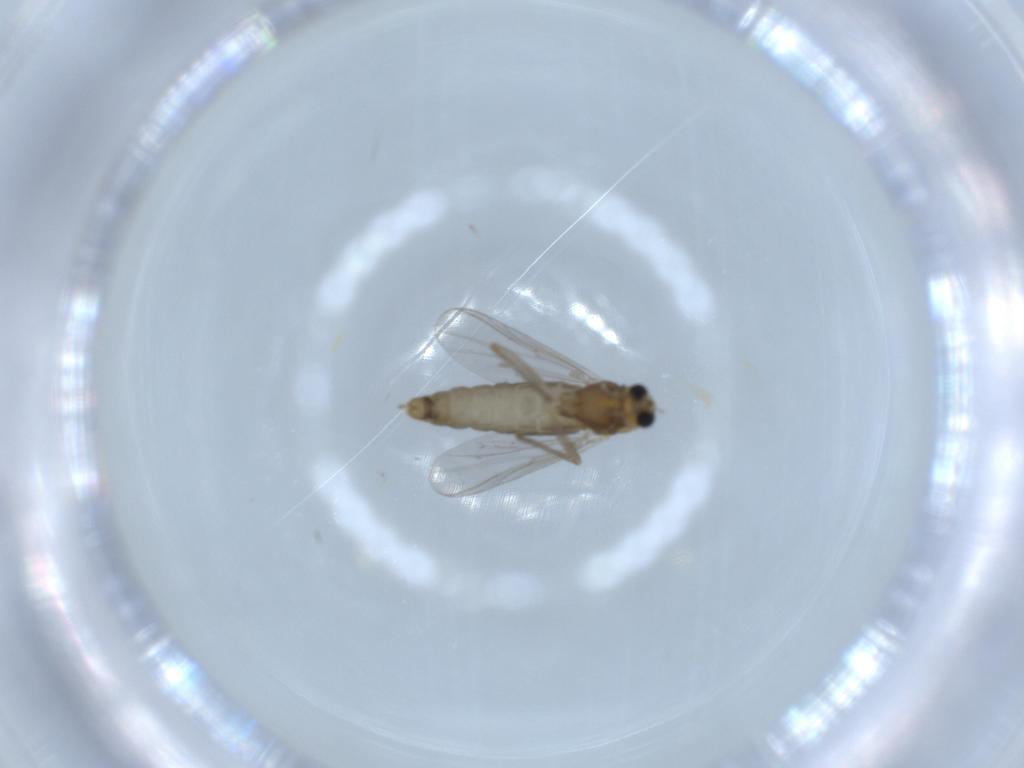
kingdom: Animalia
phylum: Arthropoda
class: Insecta
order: Diptera
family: Chironomidae
